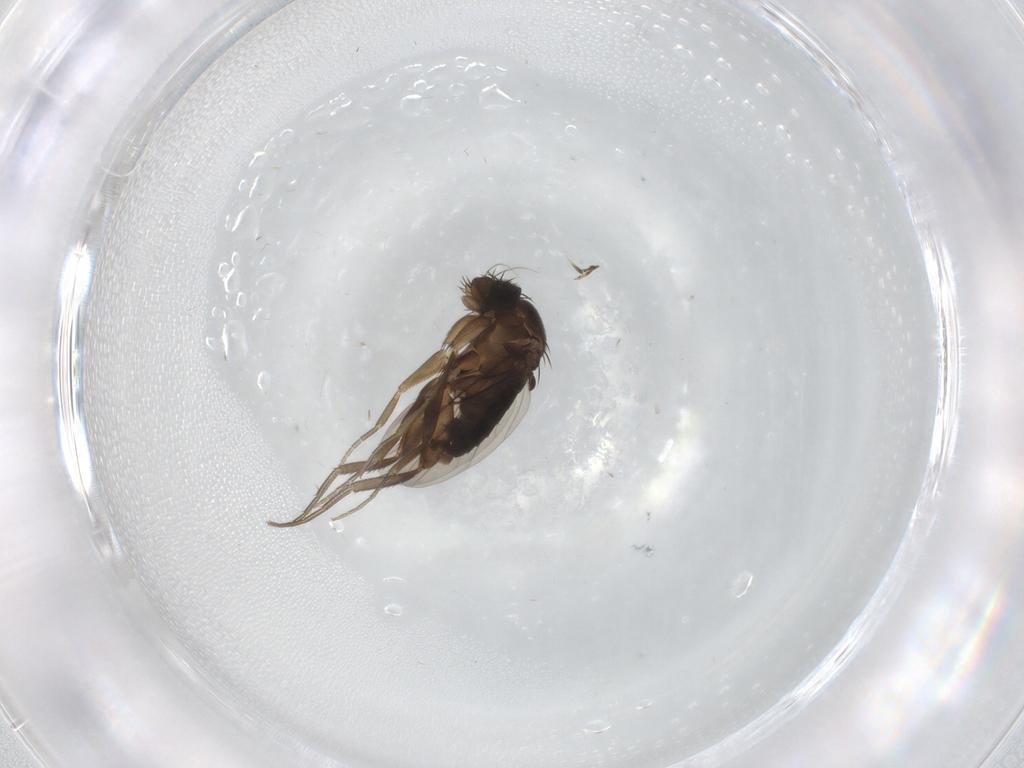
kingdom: Animalia
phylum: Arthropoda
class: Insecta
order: Diptera
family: Phoridae
